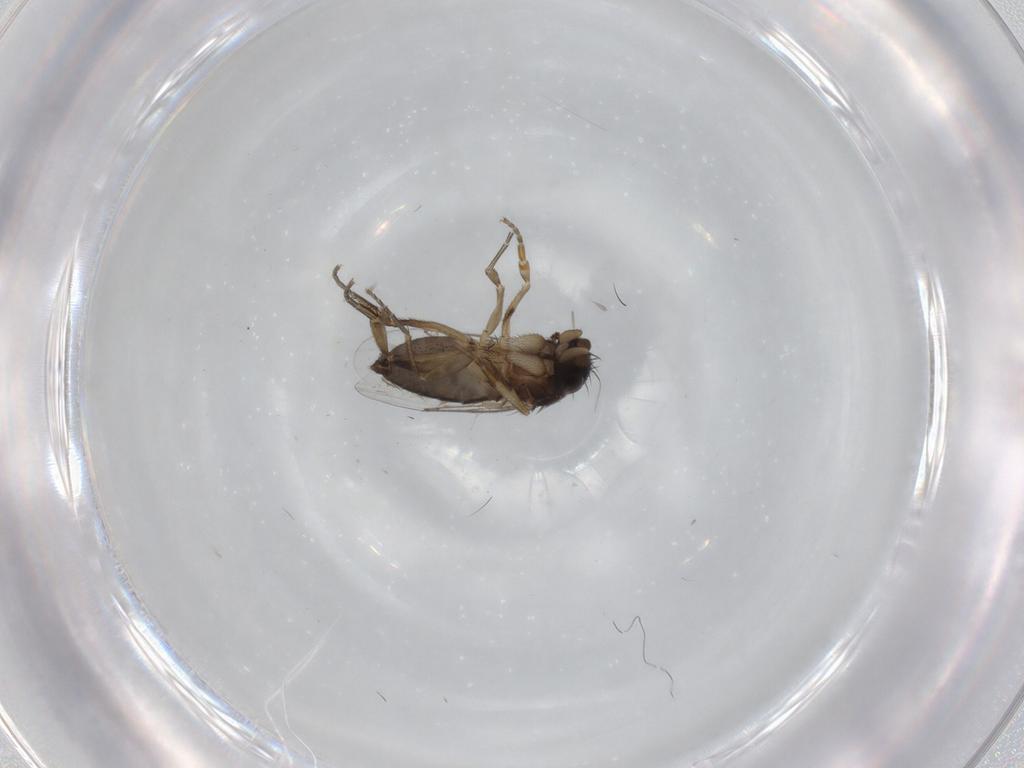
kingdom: Animalia
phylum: Arthropoda
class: Insecta
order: Diptera
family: Phoridae
